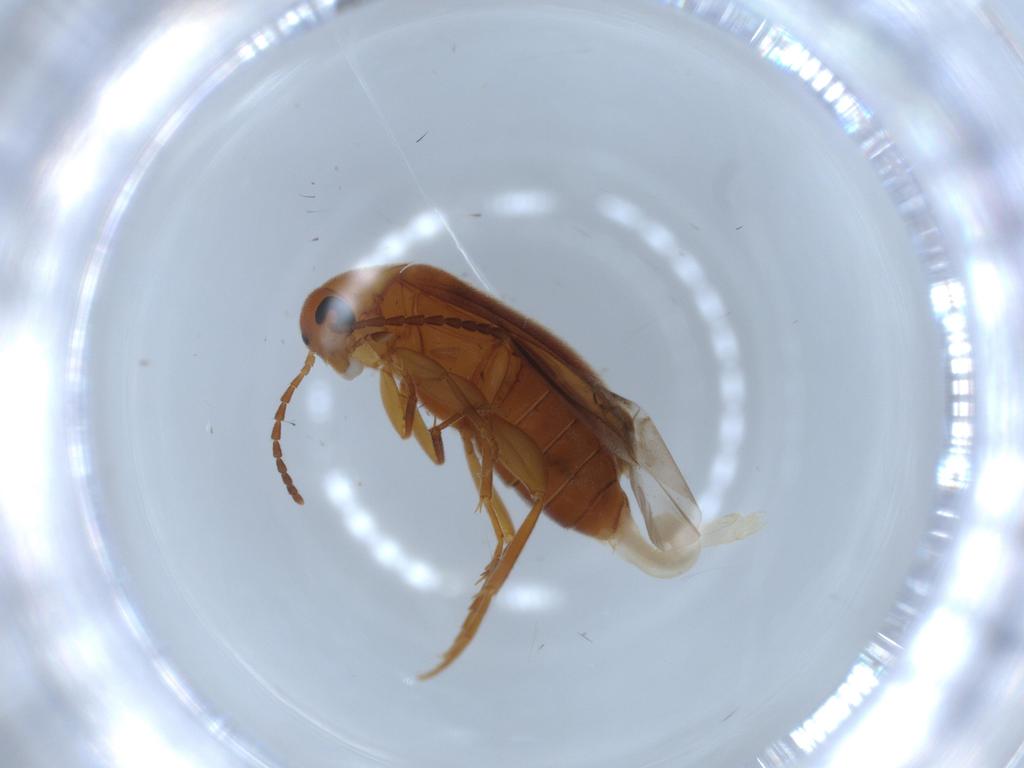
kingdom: Animalia
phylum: Arthropoda
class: Insecta
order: Coleoptera
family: Scraptiidae
